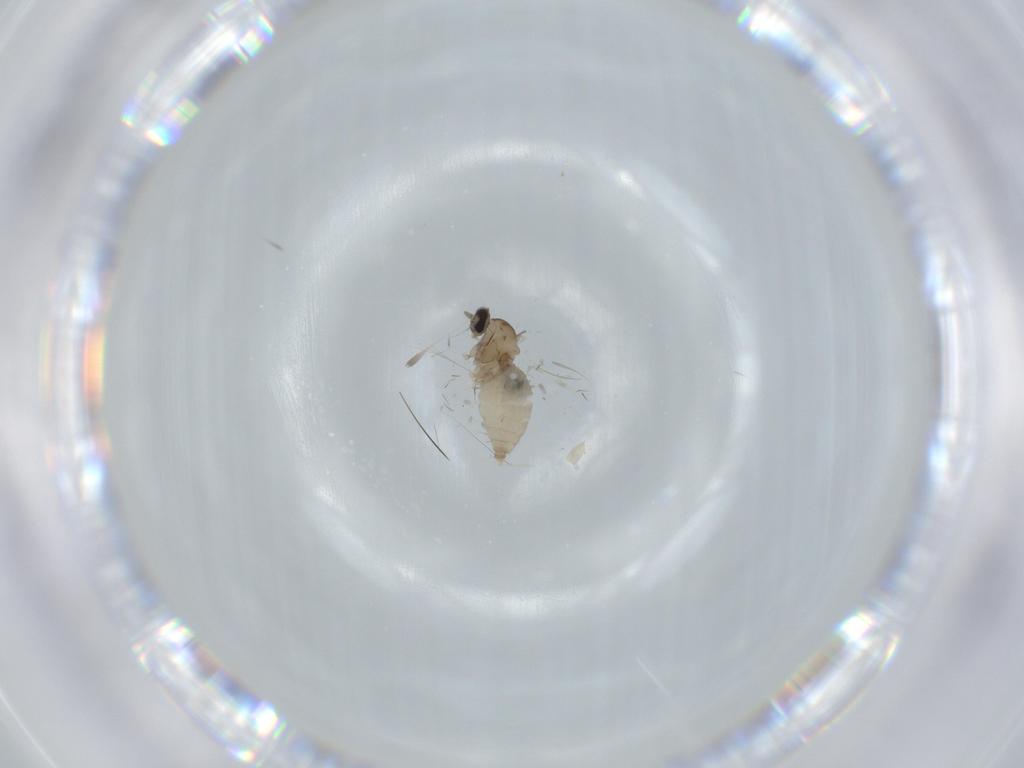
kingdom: Animalia
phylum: Arthropoda
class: Insecta
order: Diptera
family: Cecidomyiidae
